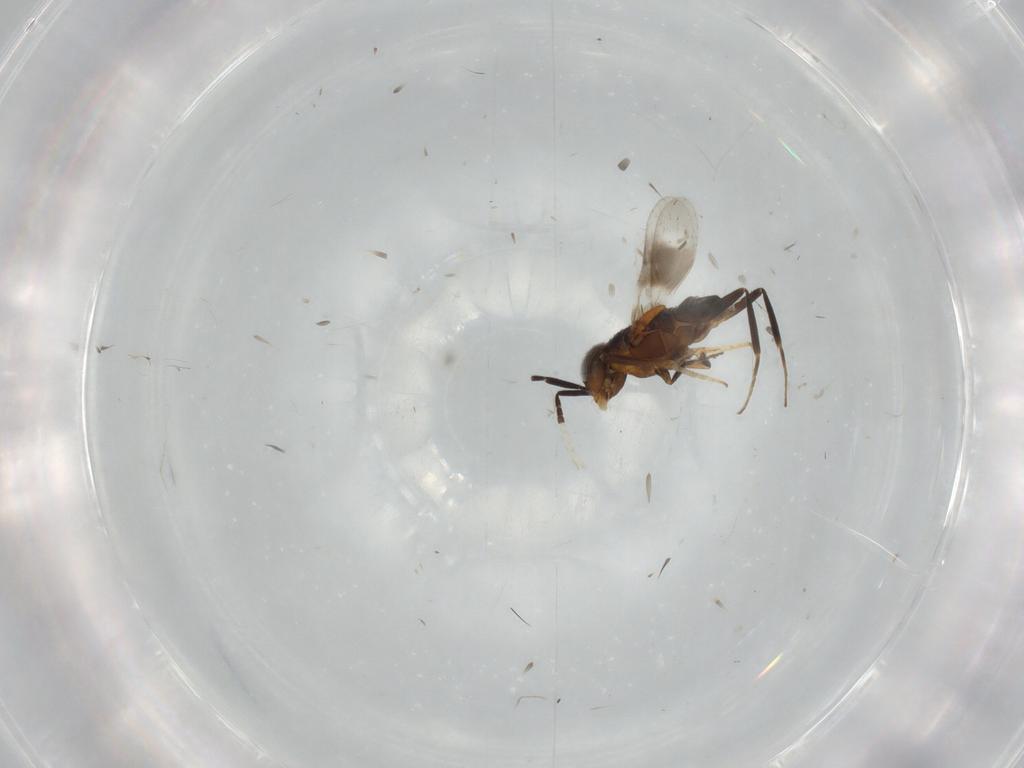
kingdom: Animalia
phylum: Arthropoda
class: Insecta
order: Hymenoptera
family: Encyrtidae
